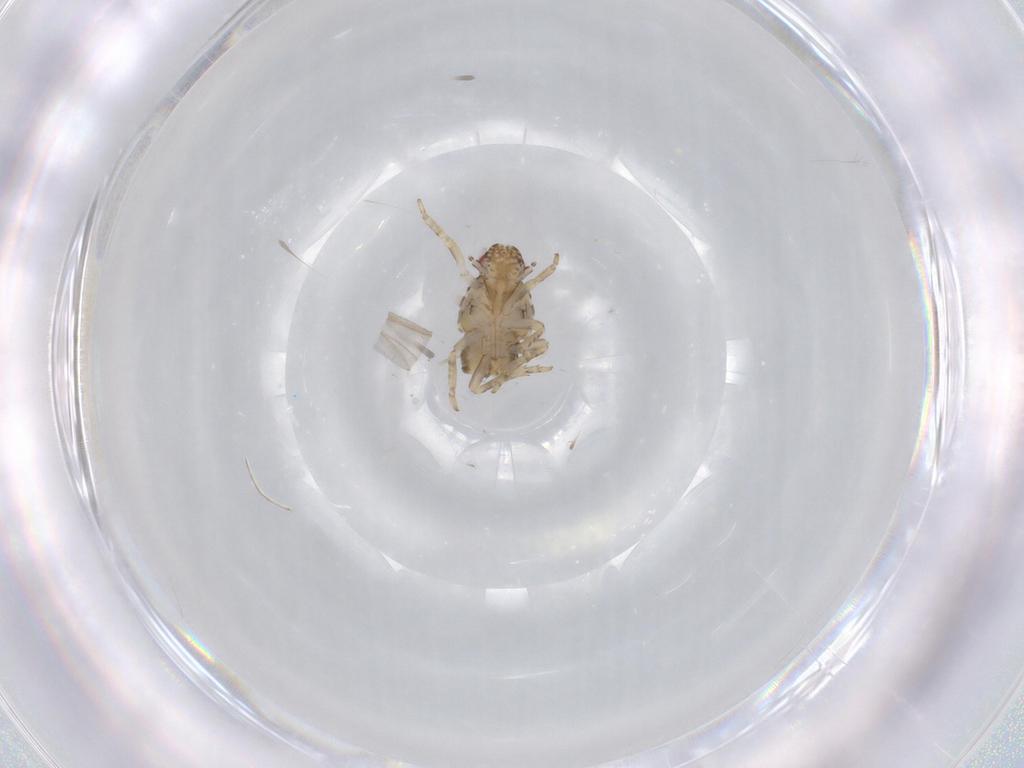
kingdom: Animalia
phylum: Arthropoda
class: Insecta
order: Hemiptera
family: Flatidae
